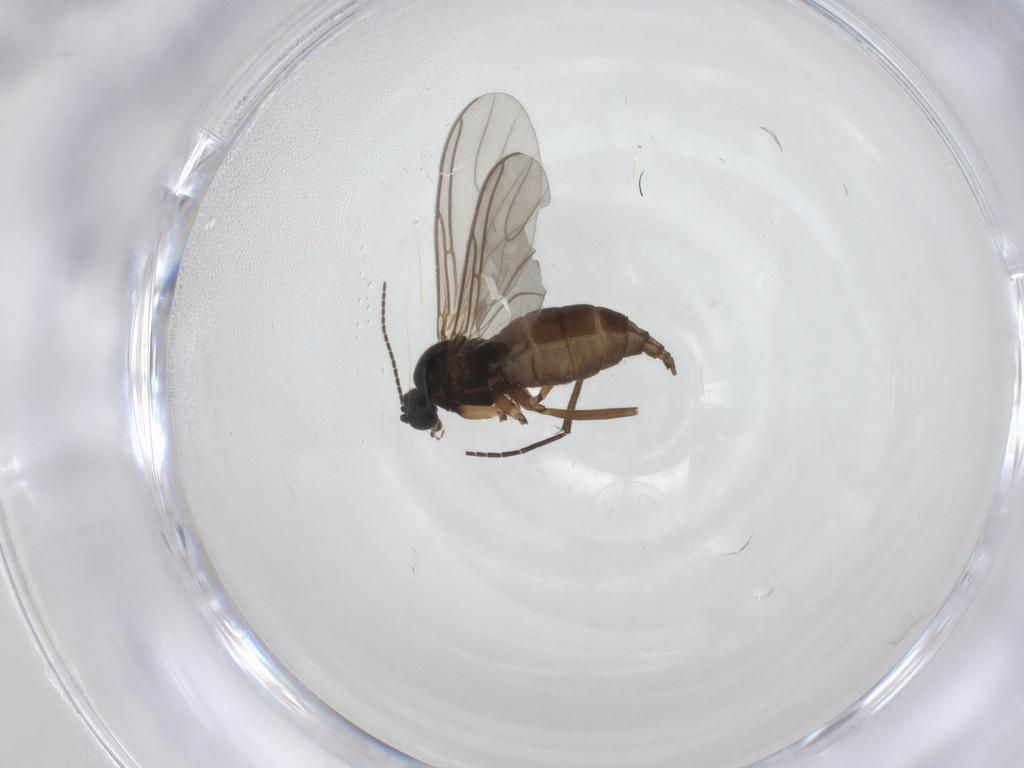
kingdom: Animalia
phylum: Arthropoda
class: Insecta
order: Diptera
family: Sciaridae
